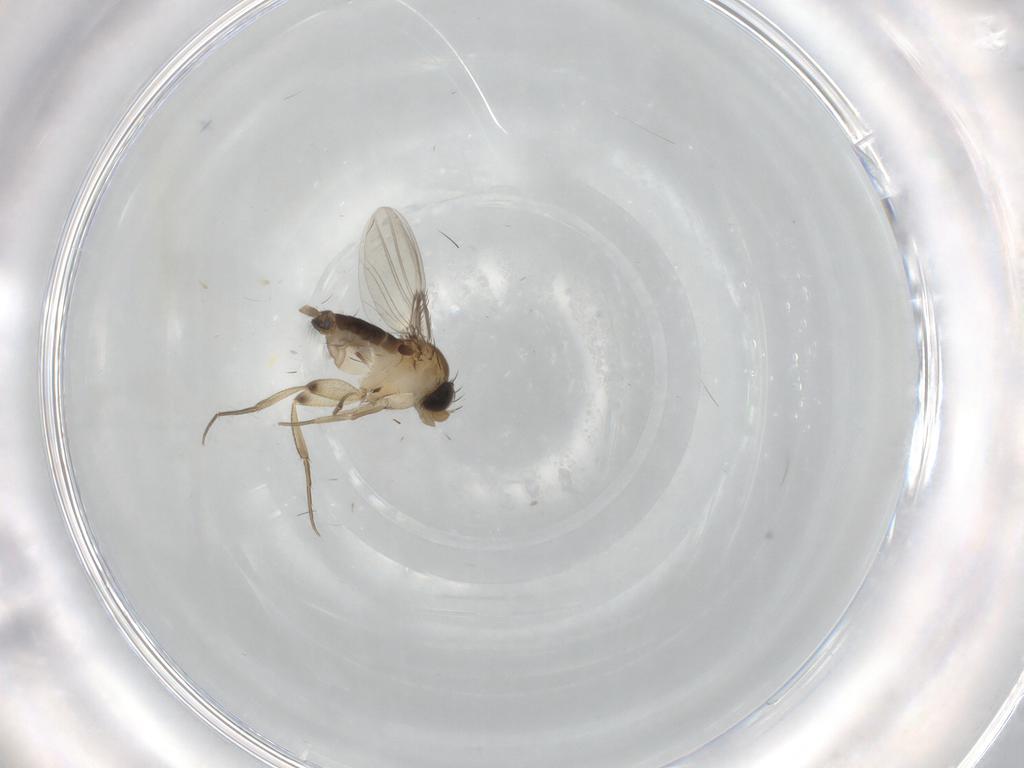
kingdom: Animalia
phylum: Arthropoda
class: Insecta
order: Diptera
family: Phoridae
